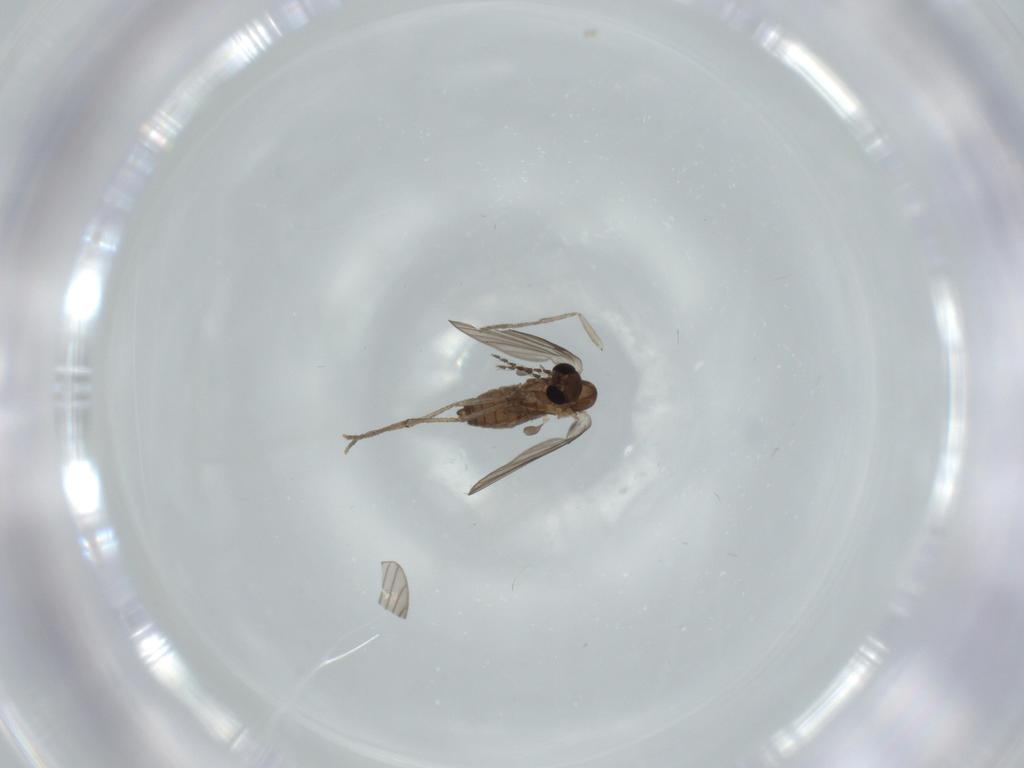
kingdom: Animalia
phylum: Arthropoda
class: Insecta
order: Diptera
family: Psychodidae
